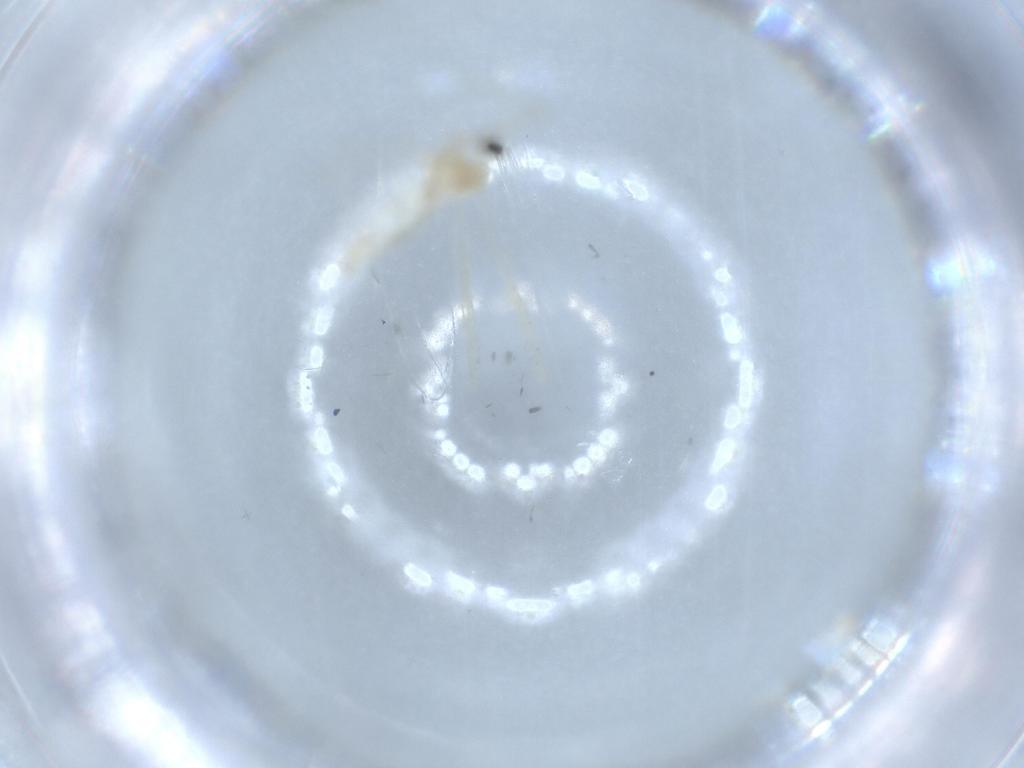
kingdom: Animalia
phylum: Arthropoda
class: Insecta
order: Diptera
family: Cecidomyiidae
